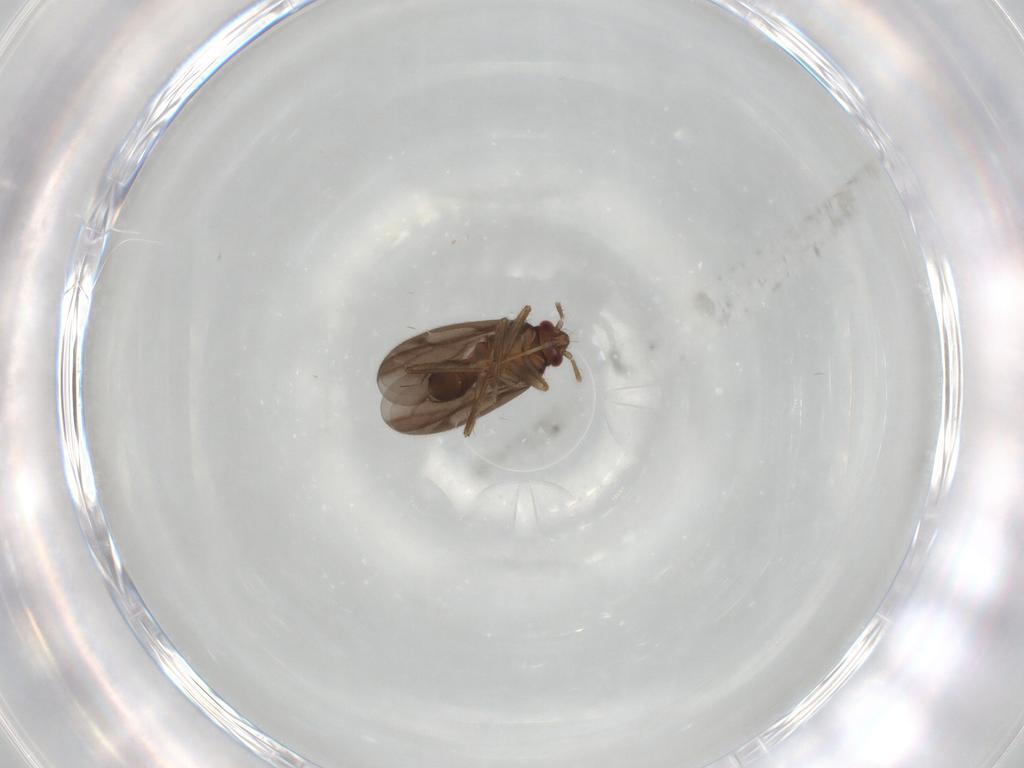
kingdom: Animalia
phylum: Arthropoda
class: Insecta
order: Hemiptera
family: Ceratocombidae
